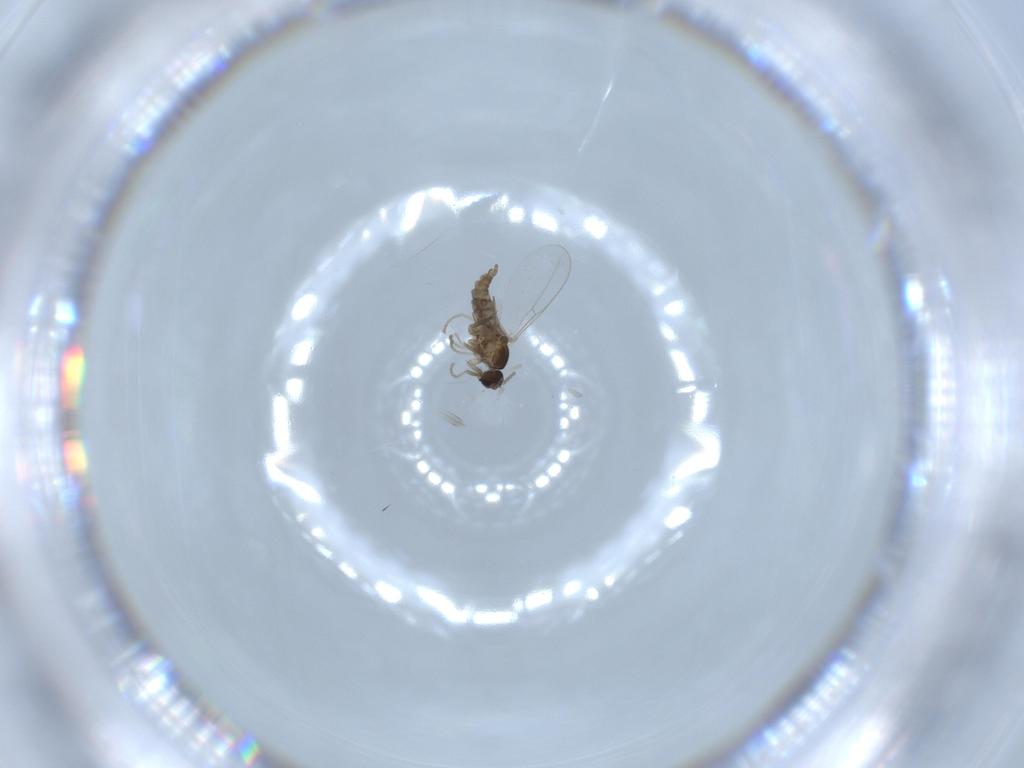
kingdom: Animalia
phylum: Arthropoda
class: Insecta
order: Diptera
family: Cecidomyiidae
